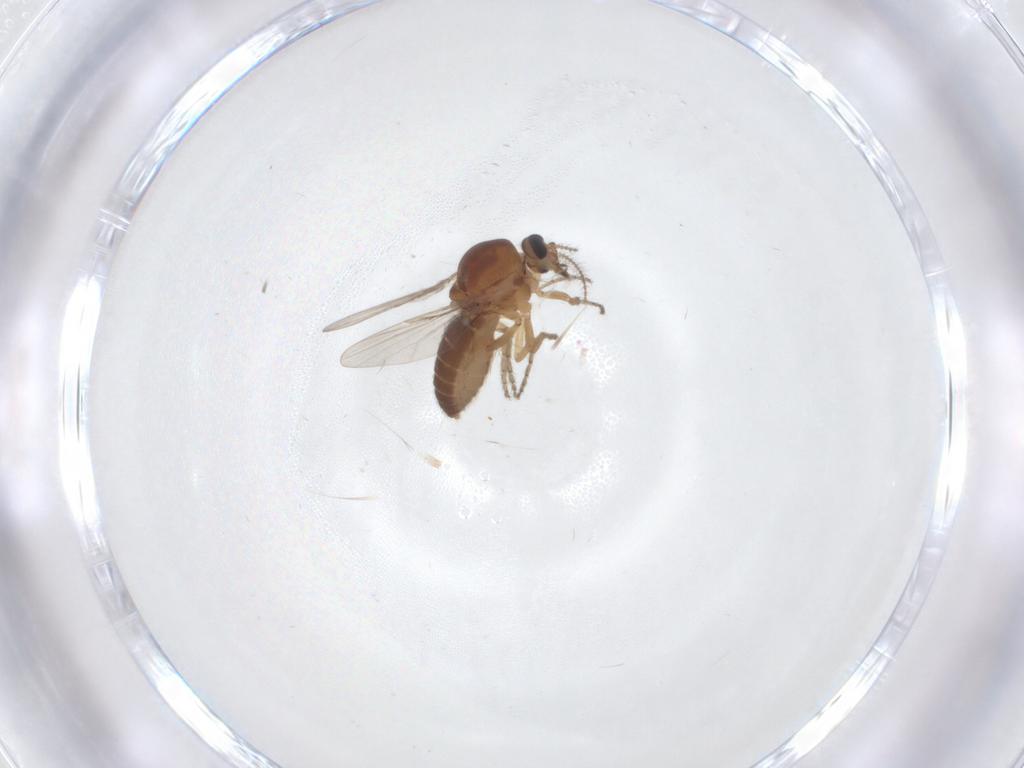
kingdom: Animalia
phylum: Arthropoda
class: Insecta
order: Diptera
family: Ceratopogonidae
